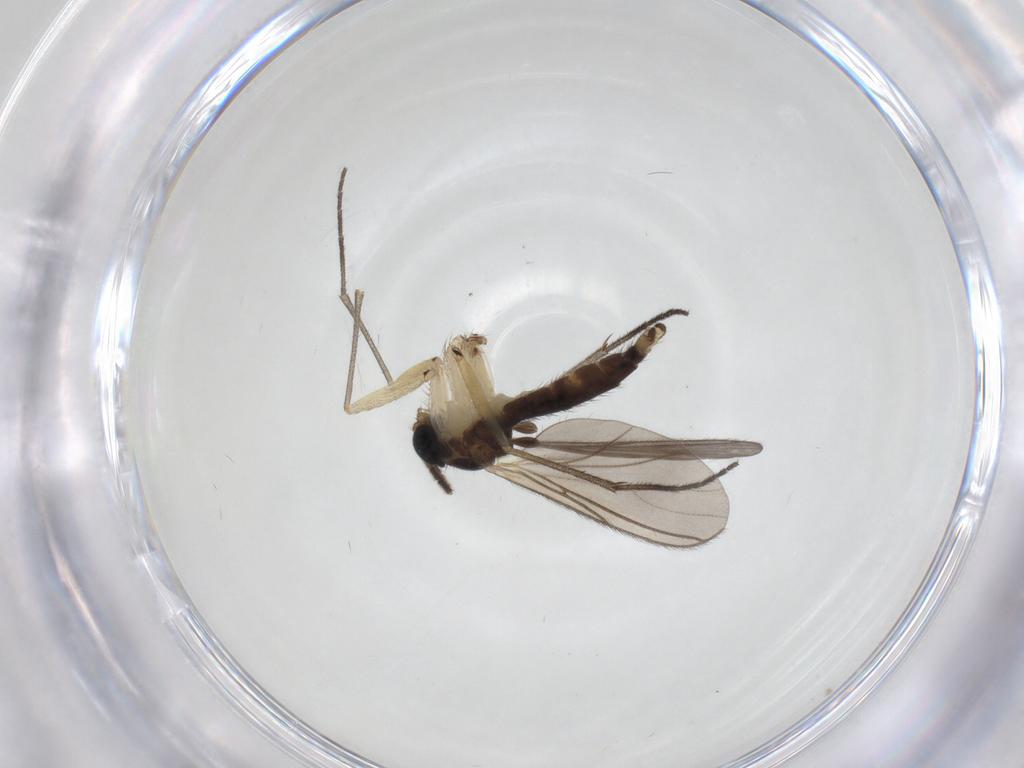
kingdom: Animalia
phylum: Arthropoda
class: Insecta
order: Diptera
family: Sciaridae
